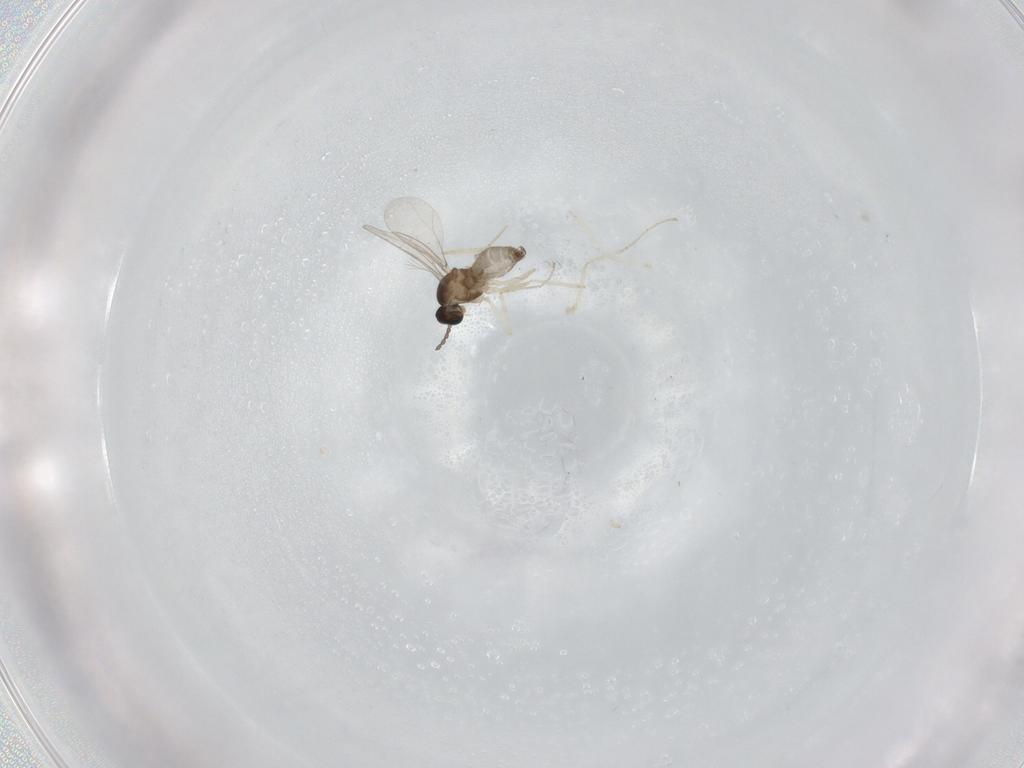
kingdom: Animalia
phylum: Arthropoda
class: Insecta
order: Diptera
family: Cecidomyiidae
